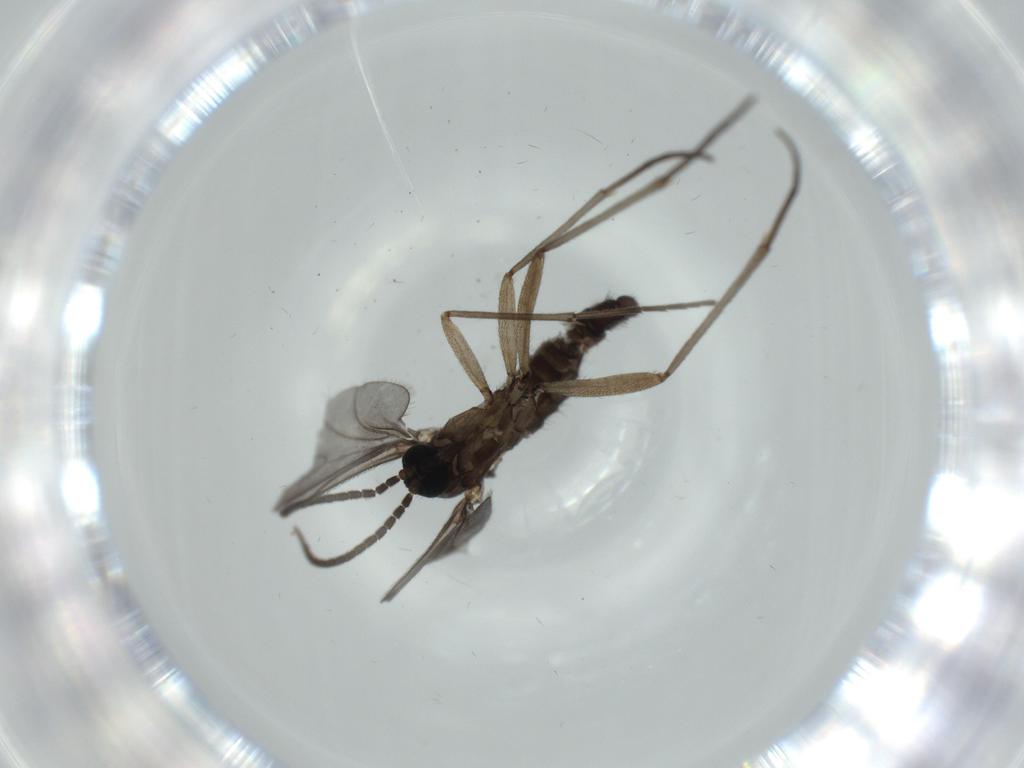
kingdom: Animalia
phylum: Arthropoda
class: Insecta
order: Diptera
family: Sciaridae
